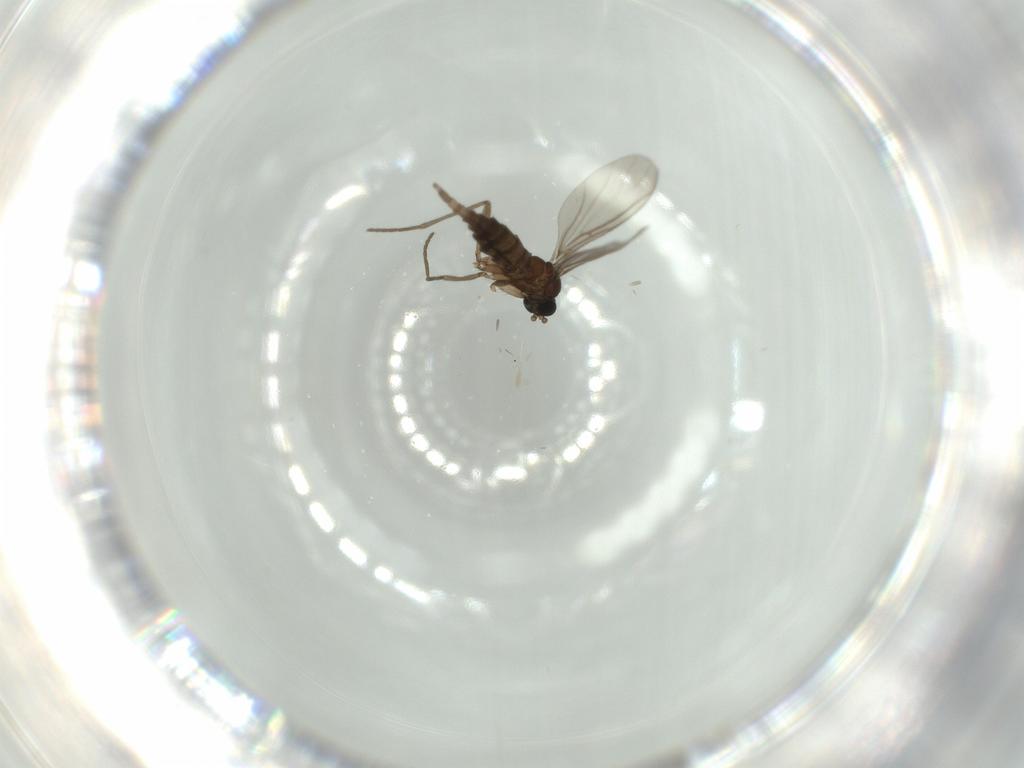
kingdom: Animalia
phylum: Arthropoda
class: Insecta
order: Diptera
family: Chironomidae
